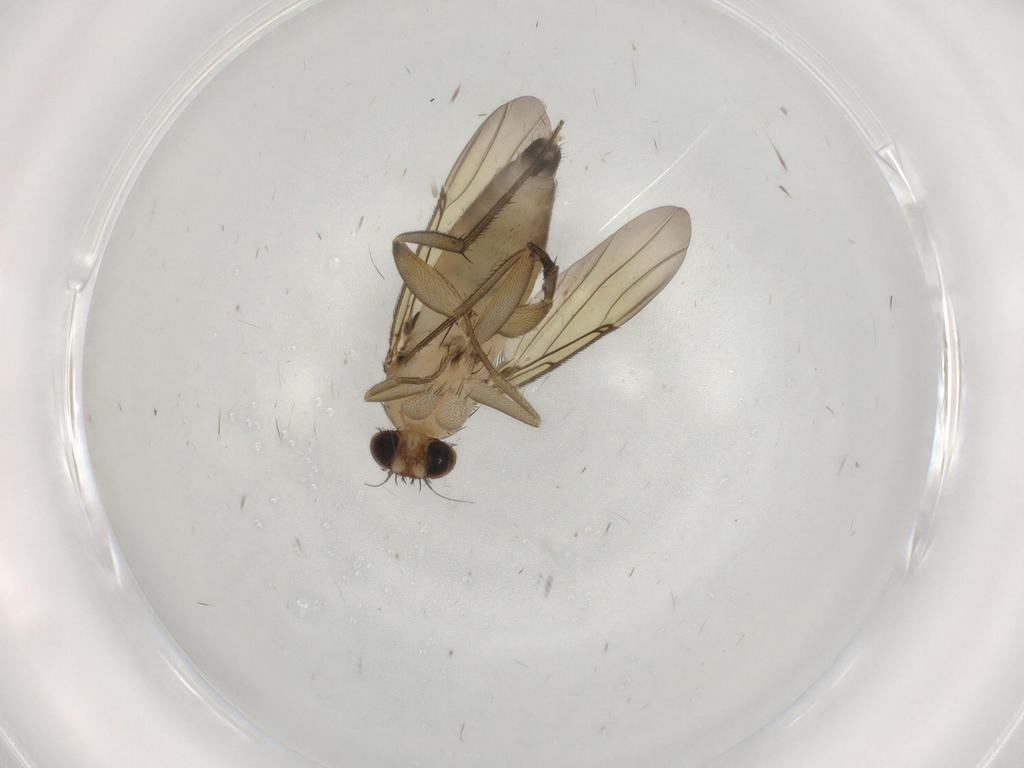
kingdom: Animalia
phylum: Arthropoda
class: Insecta
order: Diptera
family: Phoridae
